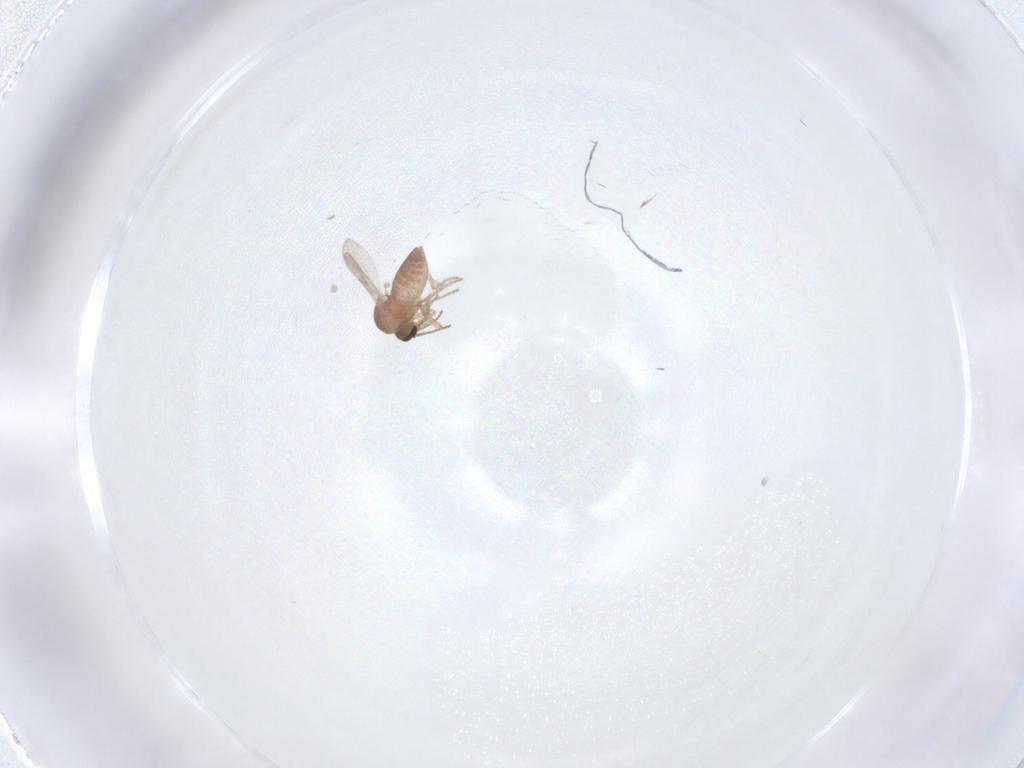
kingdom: Animalia
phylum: Arthropoda
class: Insecta
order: Diptera
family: Ceratopogonidae
